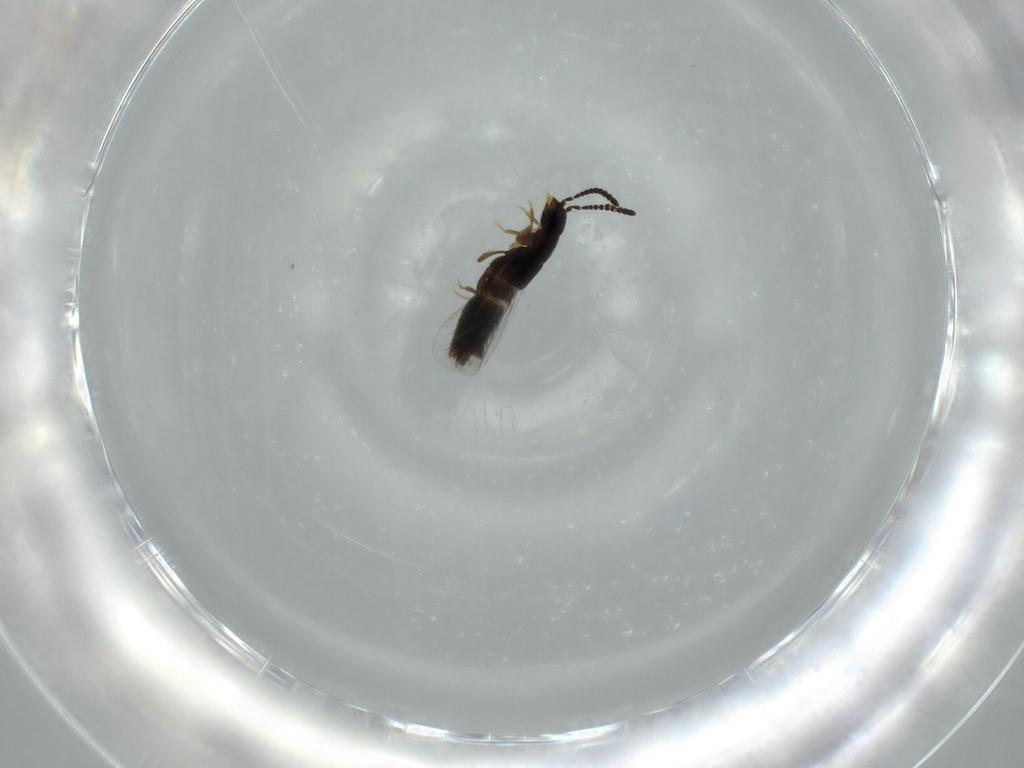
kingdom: Animalia
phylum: Arthropoda
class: Insecta
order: Coleoptera
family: Staphylinidae
